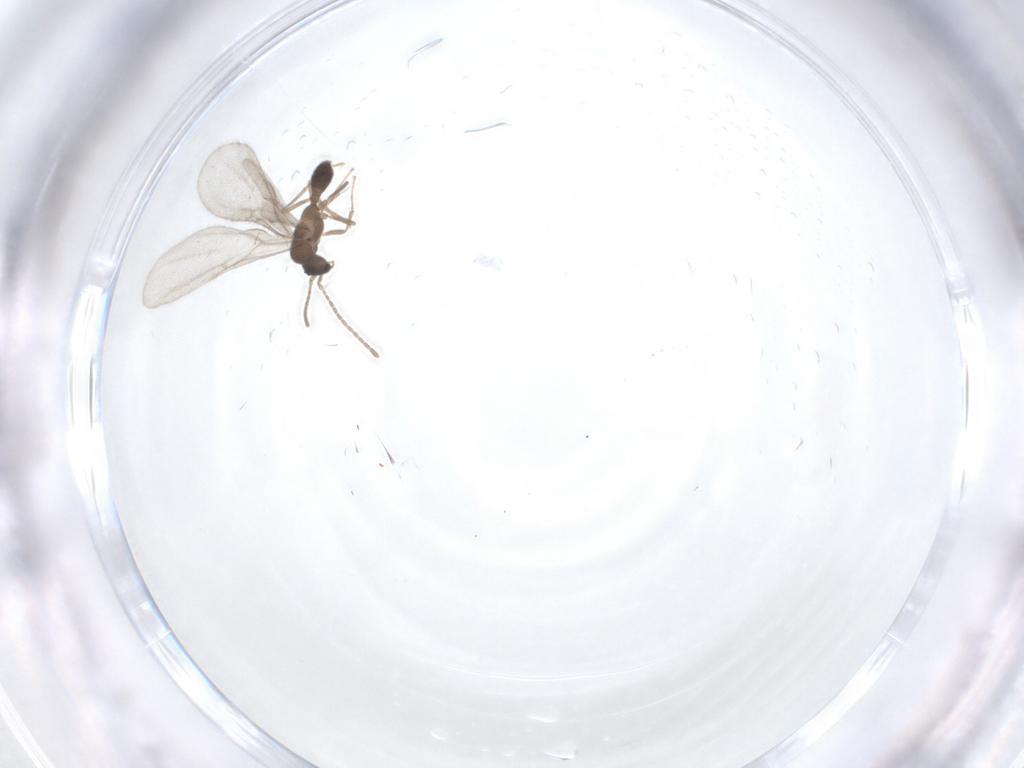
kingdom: Animalia
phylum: Arthropoda
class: Insecta
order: Hymenoptera
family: Formicidae
